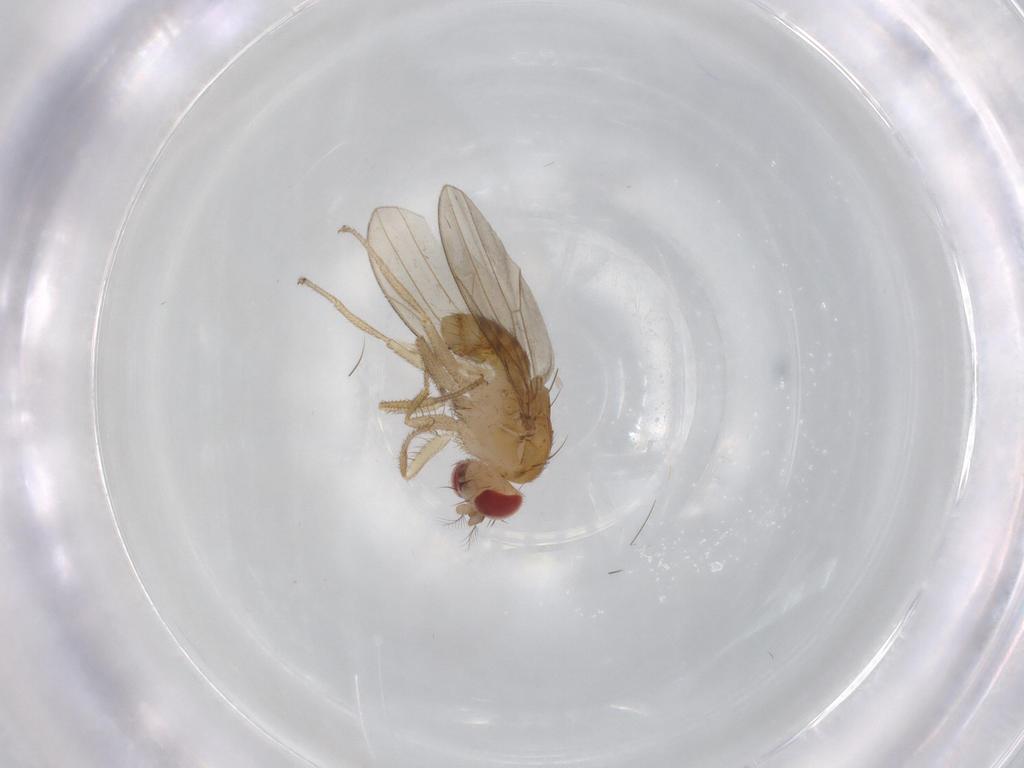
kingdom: Animalia
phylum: Arthropoda
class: Insecta
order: Diptera
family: Drosophilidae
